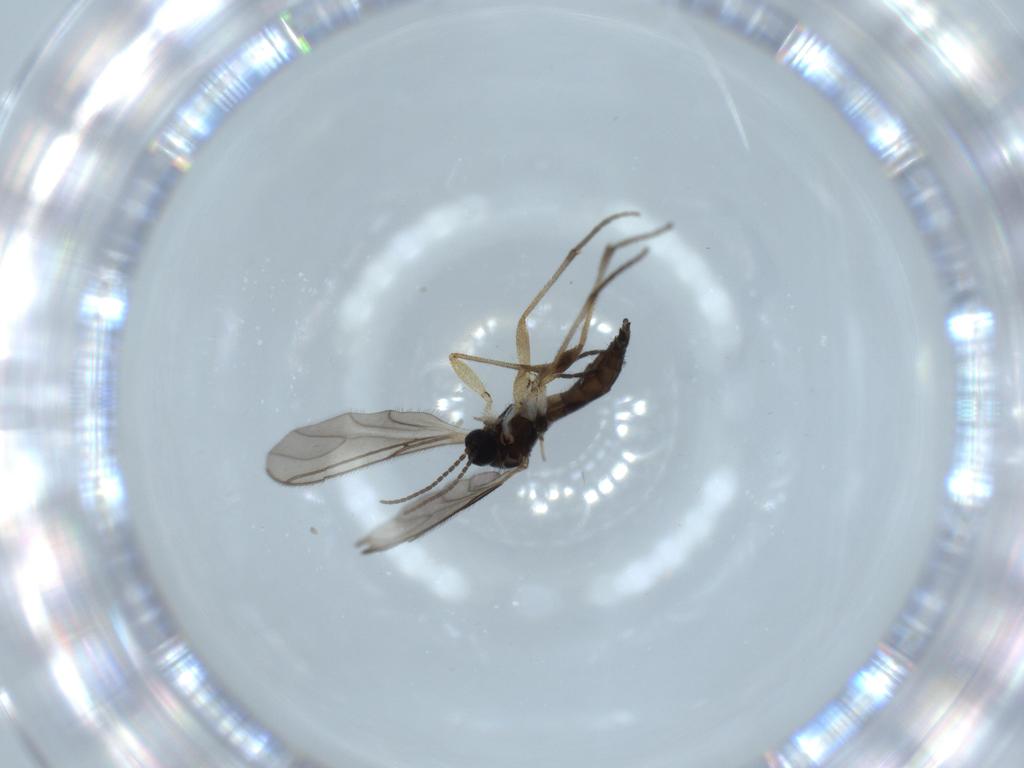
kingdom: Animalia
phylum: Arthropoda
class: Insecta
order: Diptera
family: Sciaridae
